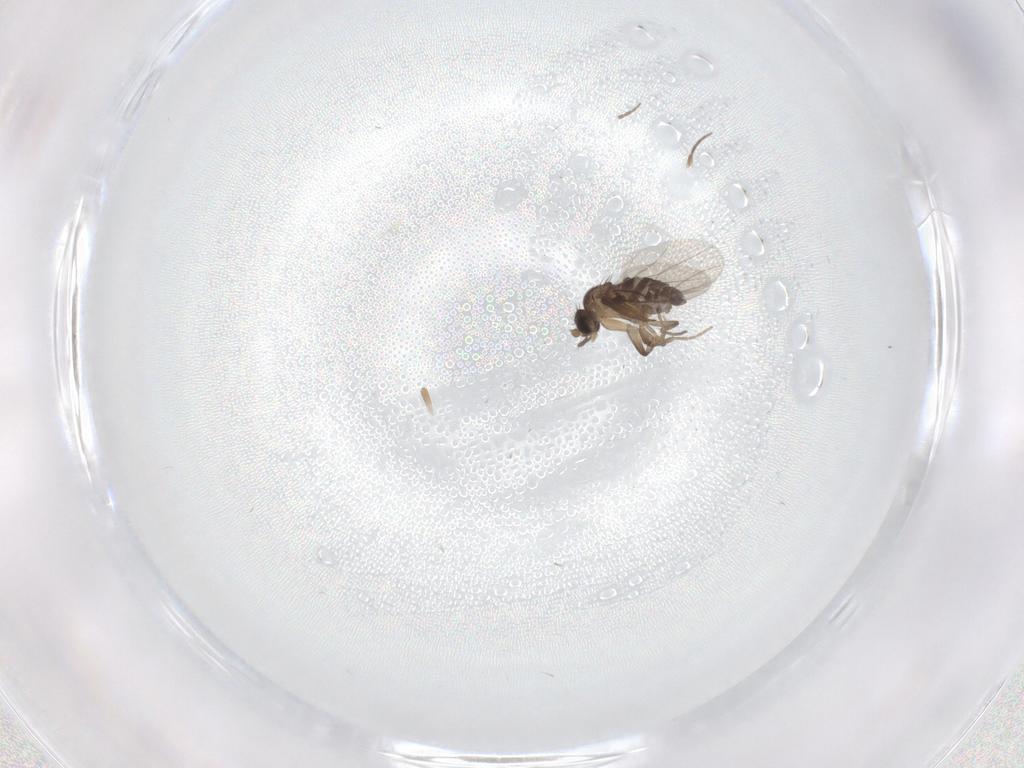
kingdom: Animalia
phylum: Arthropoda
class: Insecta
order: Diptera
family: Phoridae
